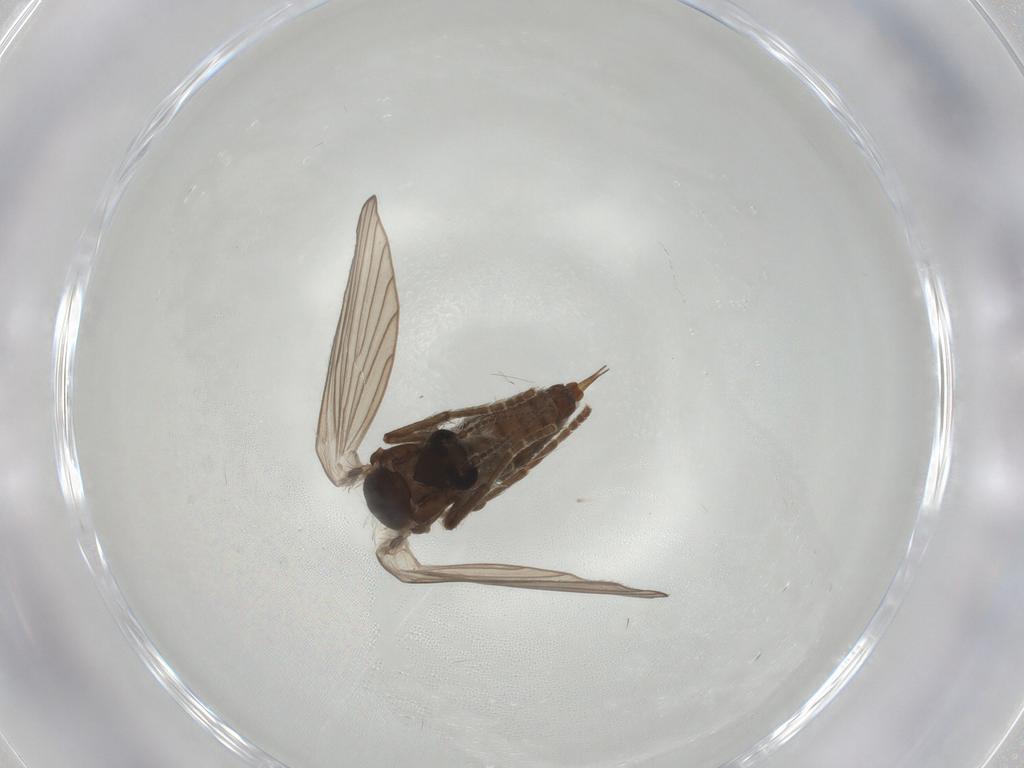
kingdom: Animalia
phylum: Arthropoda
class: Insecta
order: Diptera
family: Psychodidae
